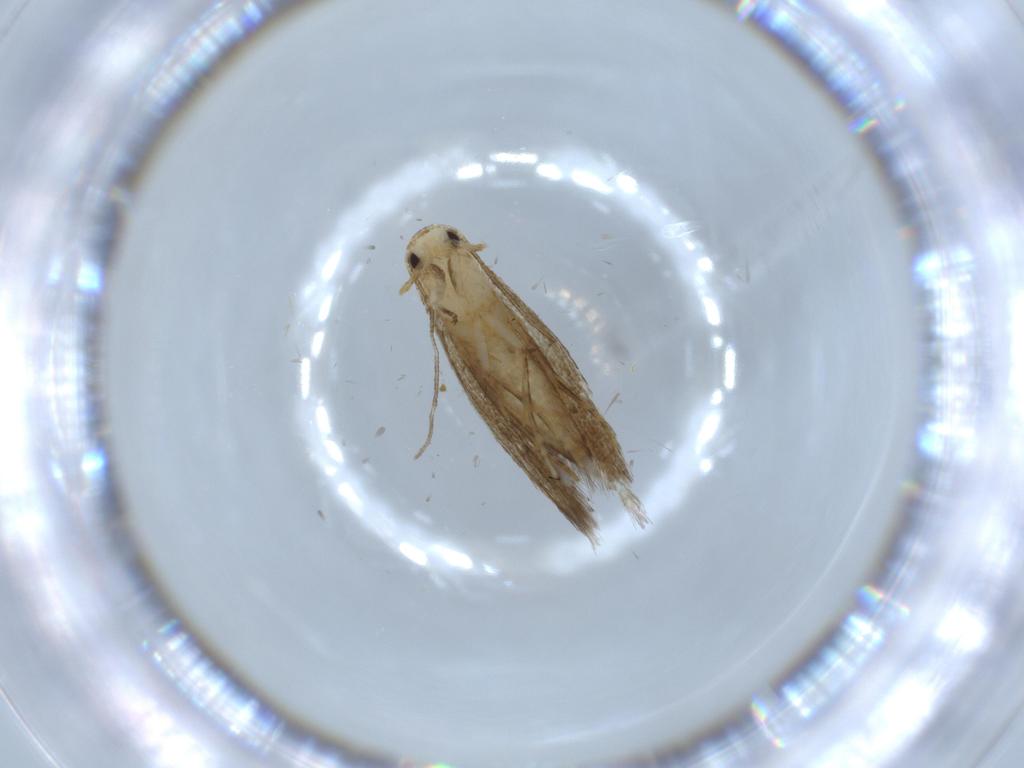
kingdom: Animalia
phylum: Arthropoda
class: Insecta
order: Lepidoptera
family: Tineidae
